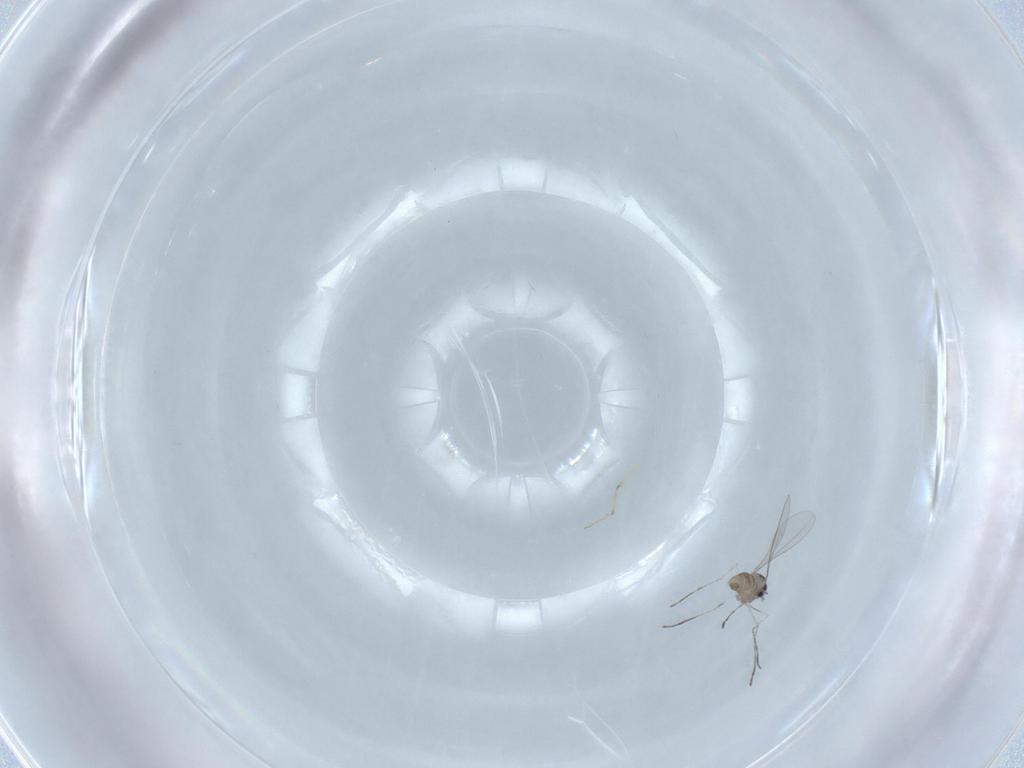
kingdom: Animalia
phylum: Arthropoda
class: Insecta
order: Diptera
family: Cecidomyiidae
